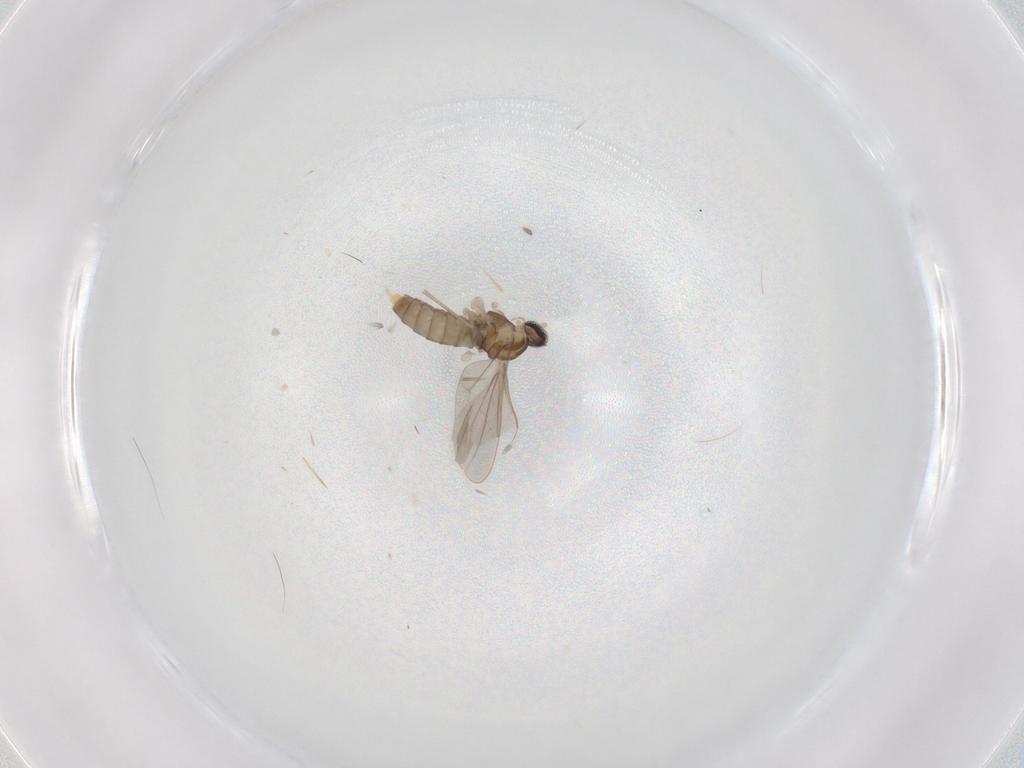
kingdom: Animalia
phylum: Arthropoda
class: Insecta
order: Diptera
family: Cecidomyiidae
